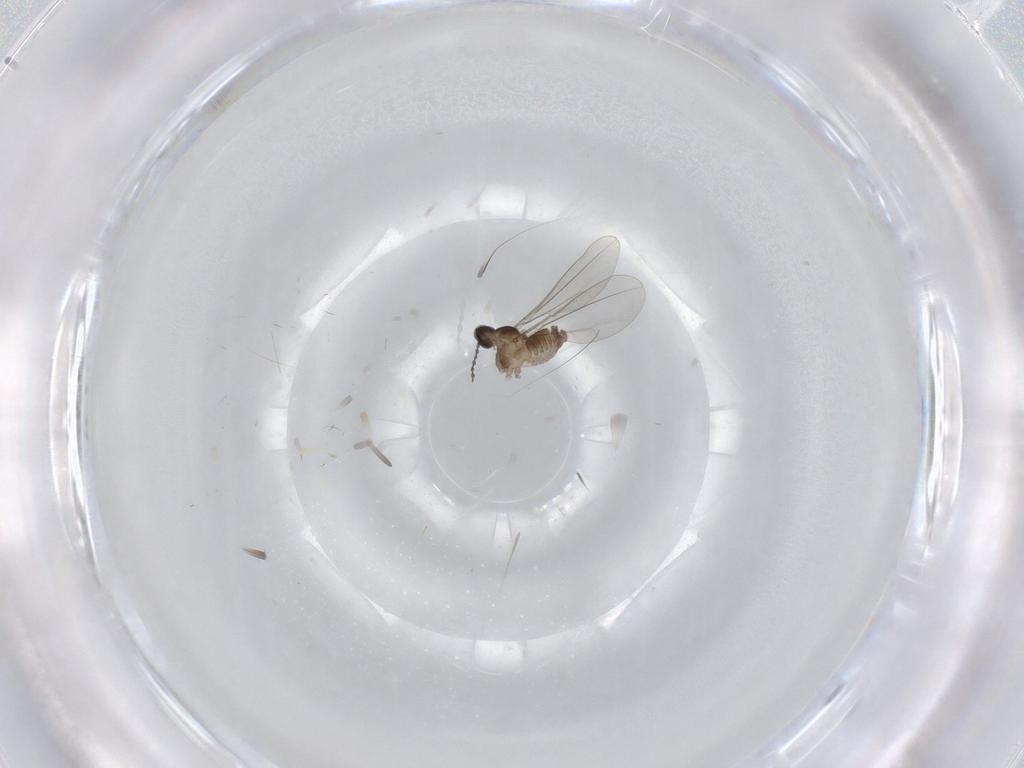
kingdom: Animalia
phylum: Arthropoda
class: Insecta
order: Diptera
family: Cecidomyiidae
